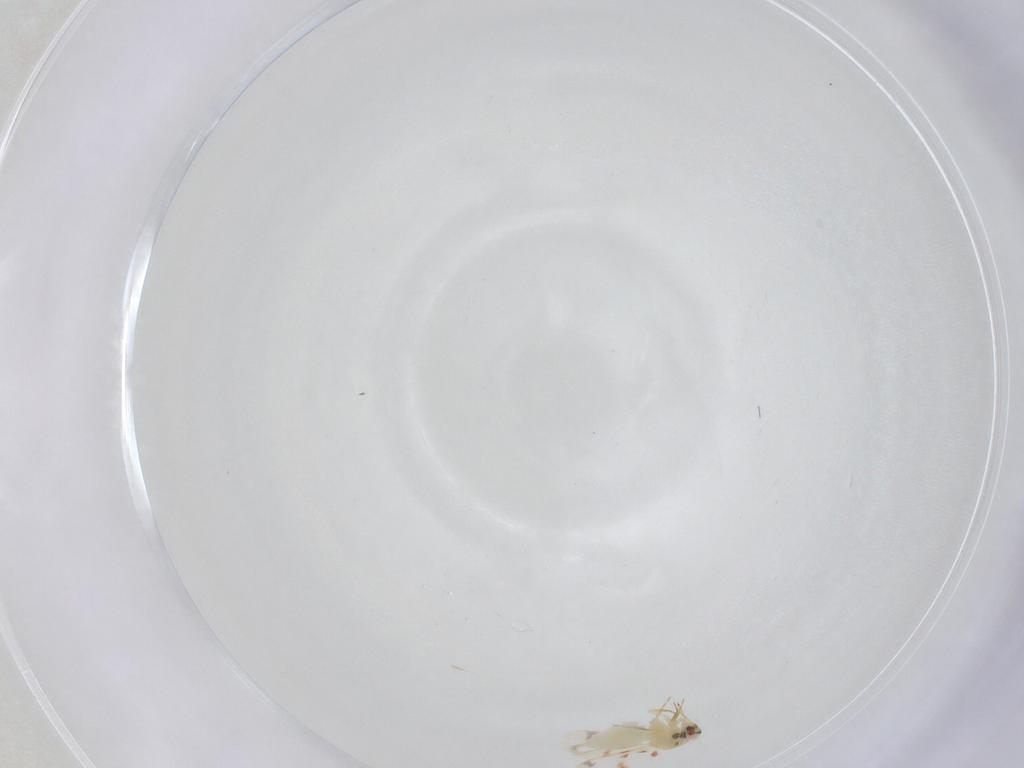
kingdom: Animalia
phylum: Arthropoda
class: Insecta
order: Hemiptera
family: Aleyrodidae
